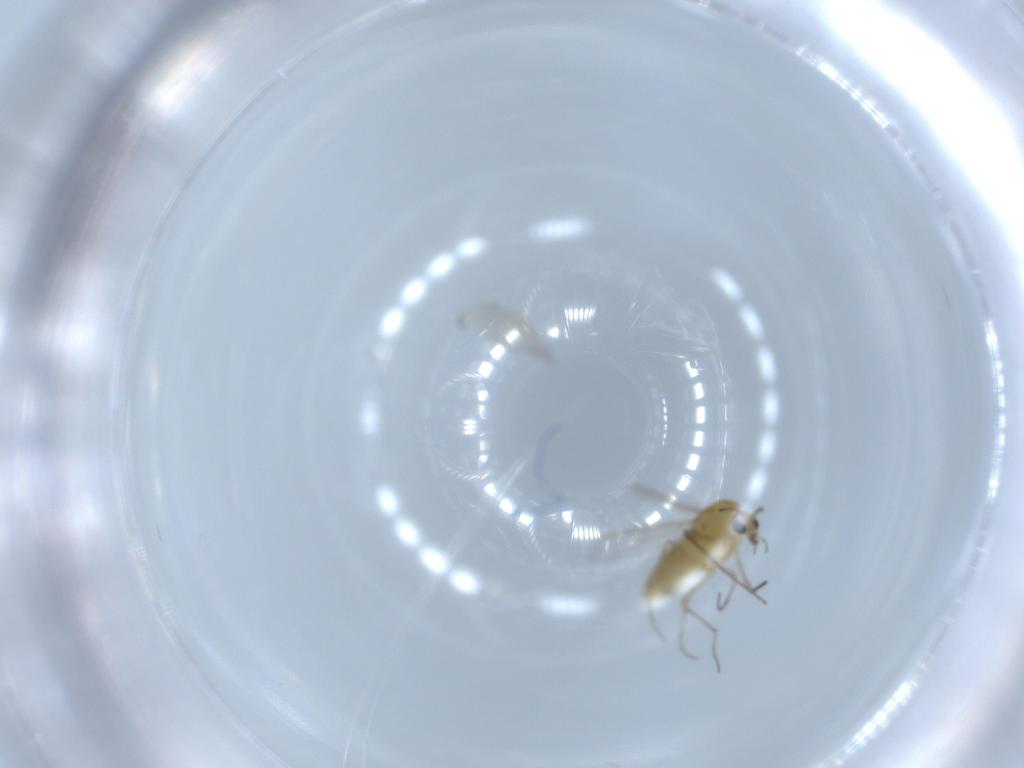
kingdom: Animalia
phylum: Arthropoda
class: Insecta
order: Diptera
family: Chironomidae
